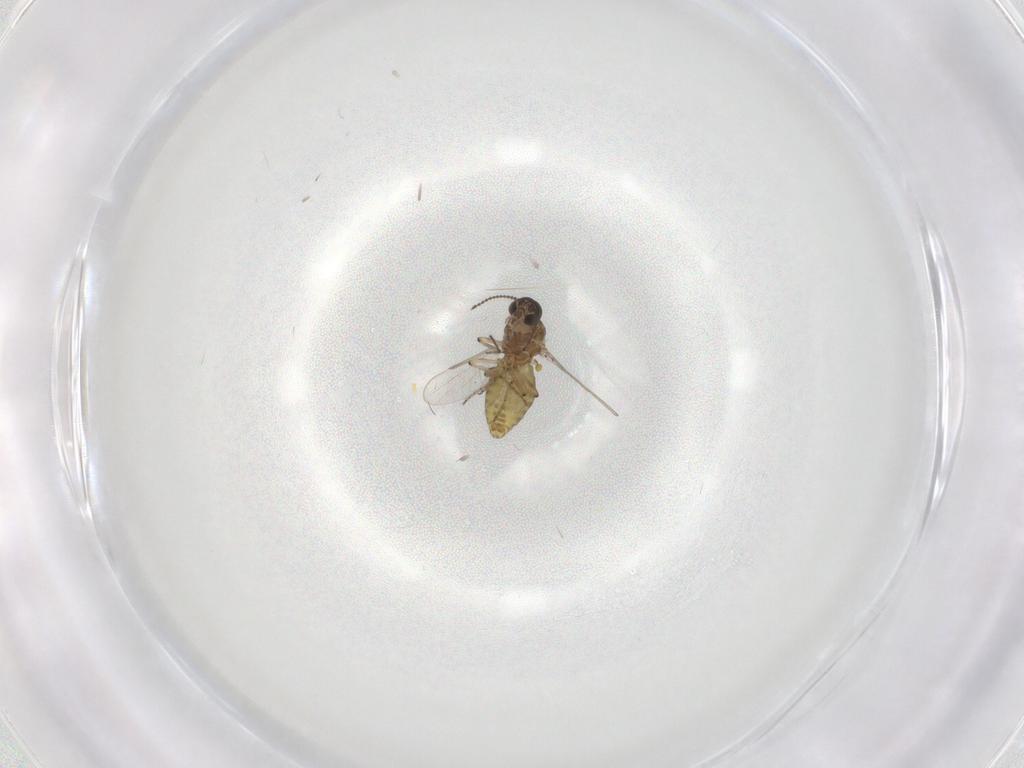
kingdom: Animalia
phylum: Arthropoda
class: Insecta
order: Diptera
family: Ceratopogonidae
